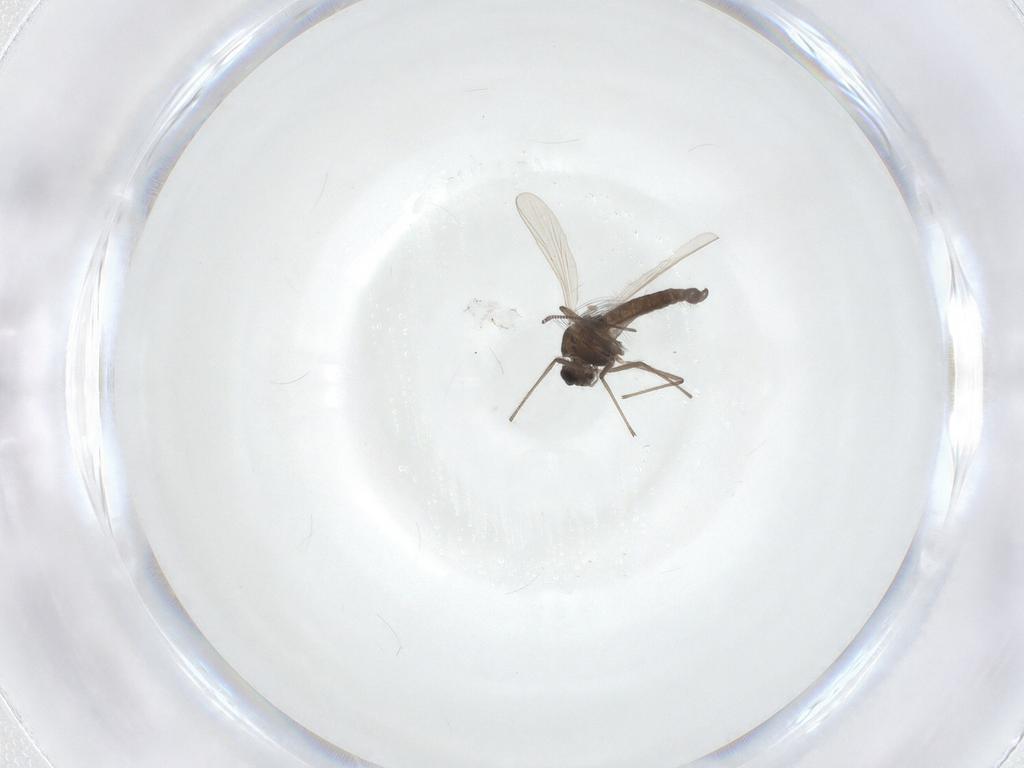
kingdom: Animalia
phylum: Arthropoda
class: Insecta
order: Diptera
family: Chironomidae
